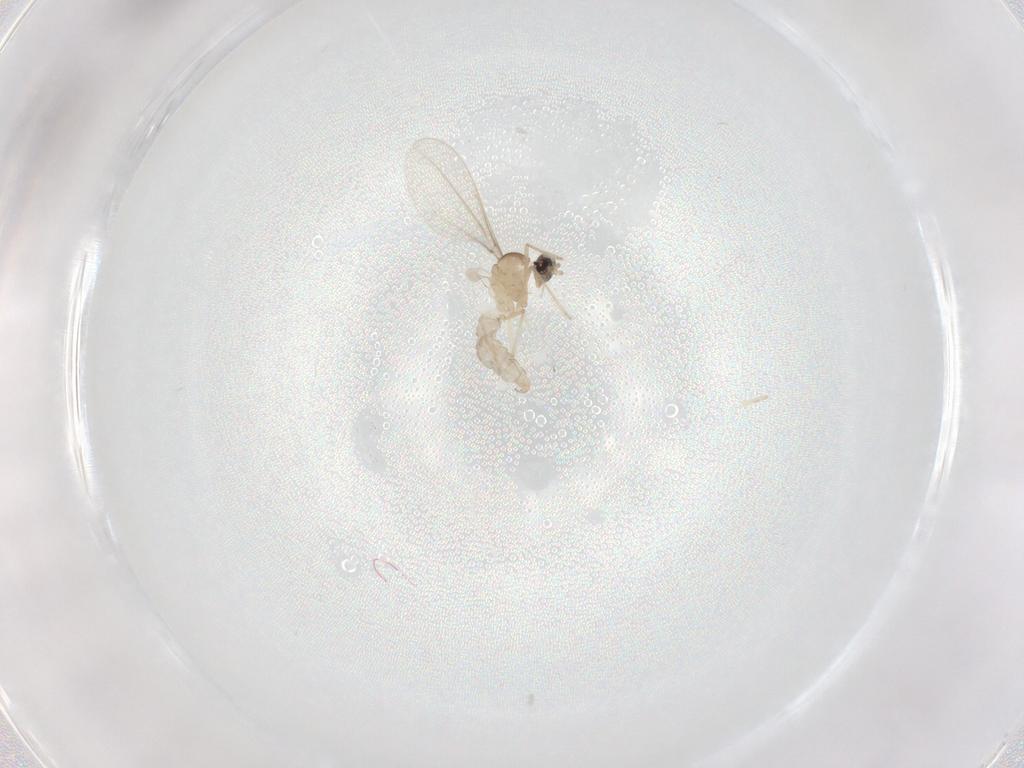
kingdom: Animalia
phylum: Arthropoda
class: Insecta
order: Diptera
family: Cecidomyiidae
